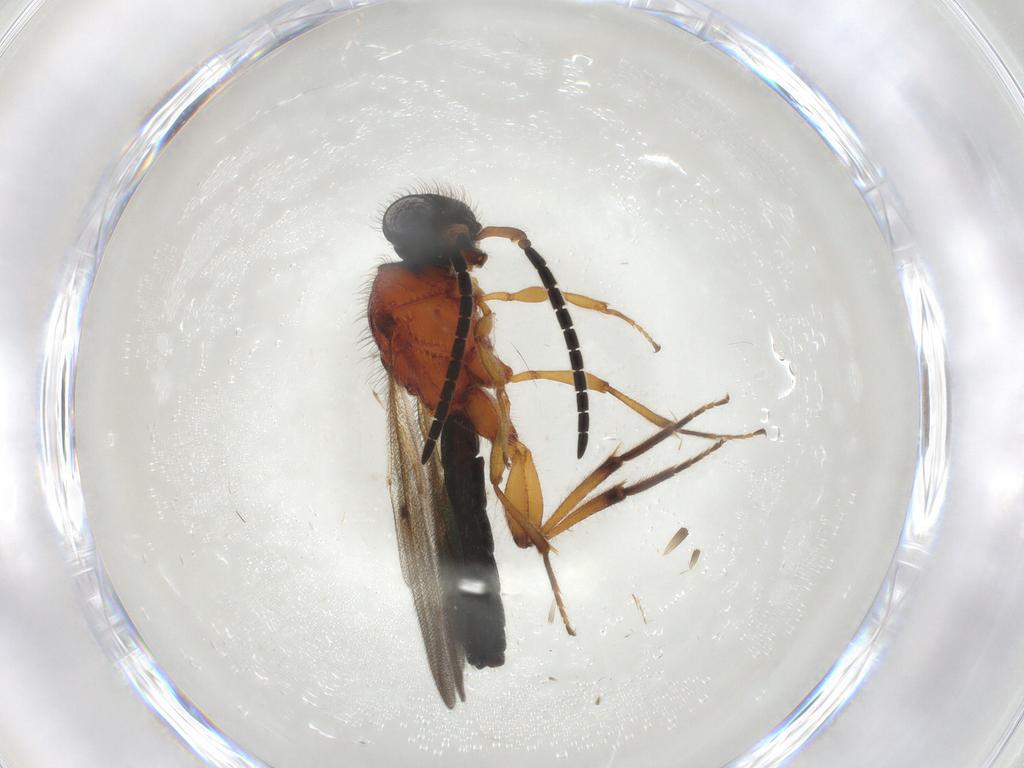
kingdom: Animalia
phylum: Arthropoda
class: Insecta
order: Hymenoptera
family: Scelionidae
